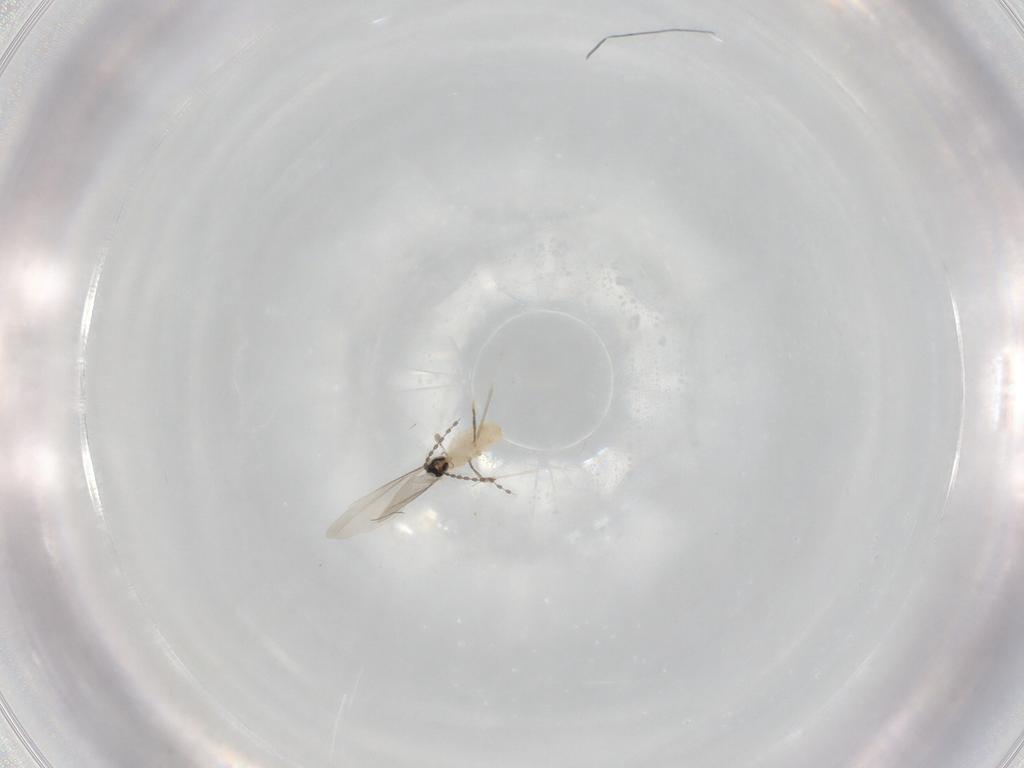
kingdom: Animalia
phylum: Arthropoda
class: Insecta
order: Diptera
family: Cecidomyiidae
